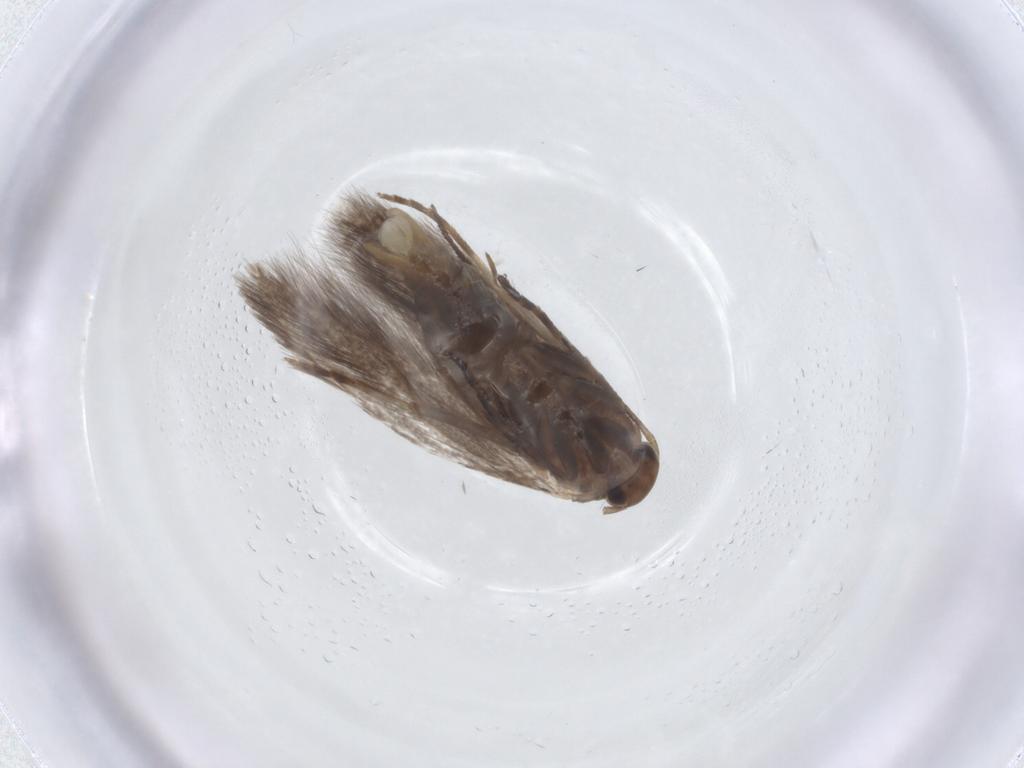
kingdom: Animalia
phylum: Arthropoda
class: Insecta
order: Lepidoptera
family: Elachistidae
